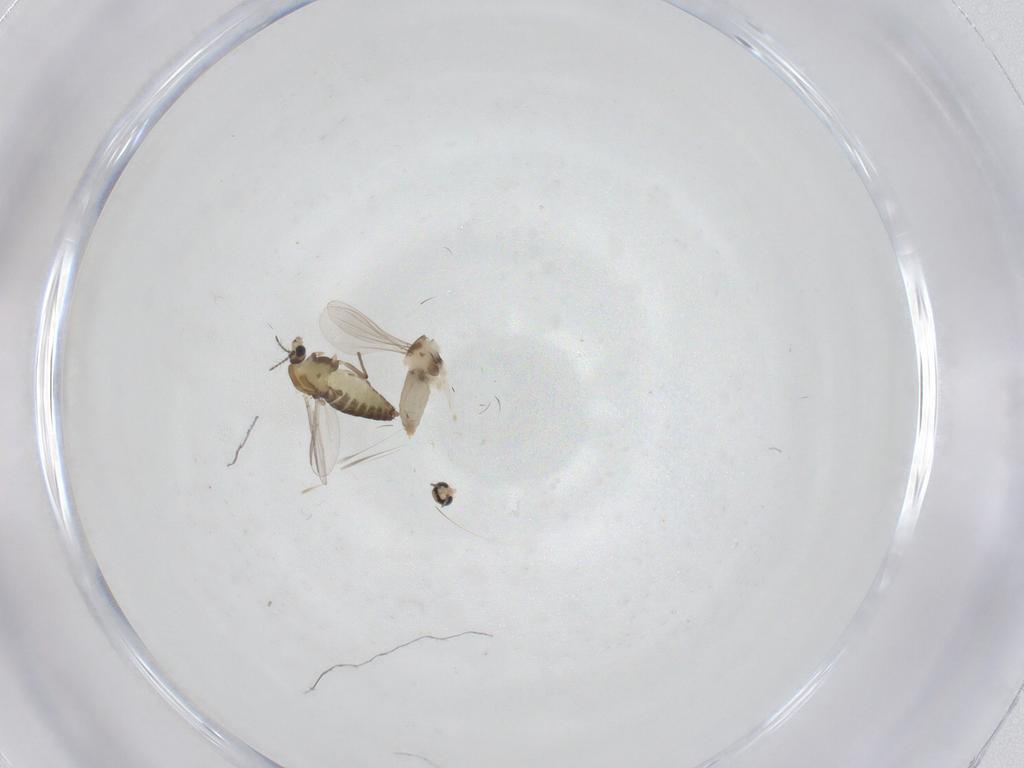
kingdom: Animalia
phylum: Arthropoda
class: Insecta
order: Diptera
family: Chironomidae
